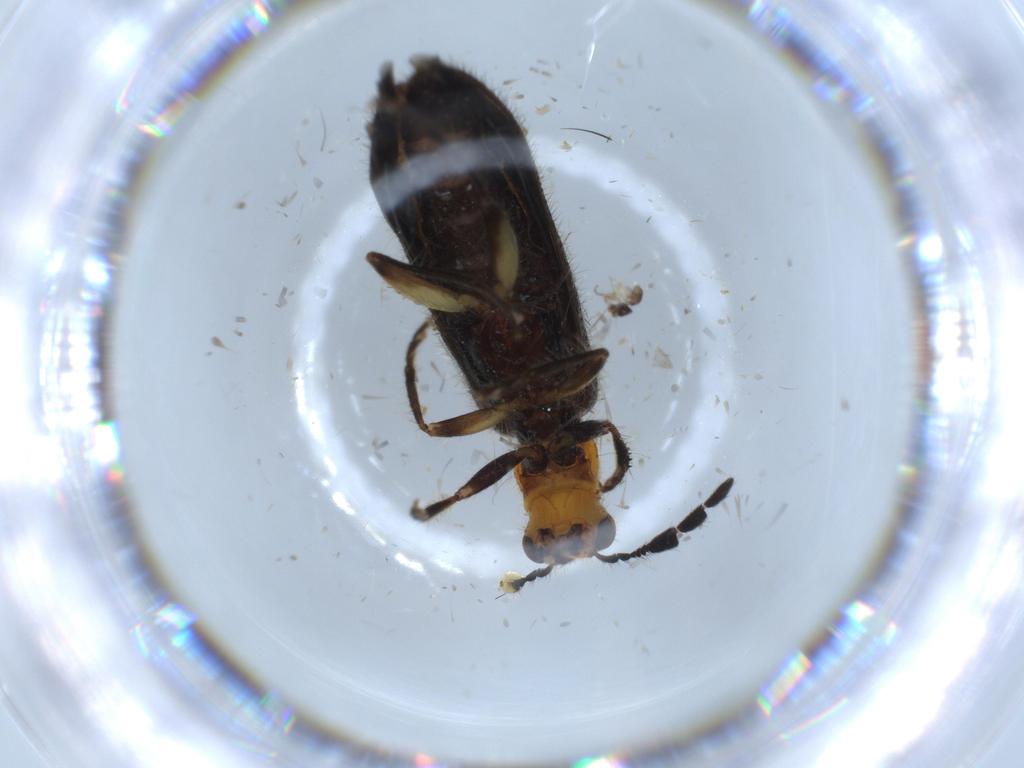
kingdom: Animalia
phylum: Arthropoda
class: Insecta
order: Coleoptera
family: Cleridae
